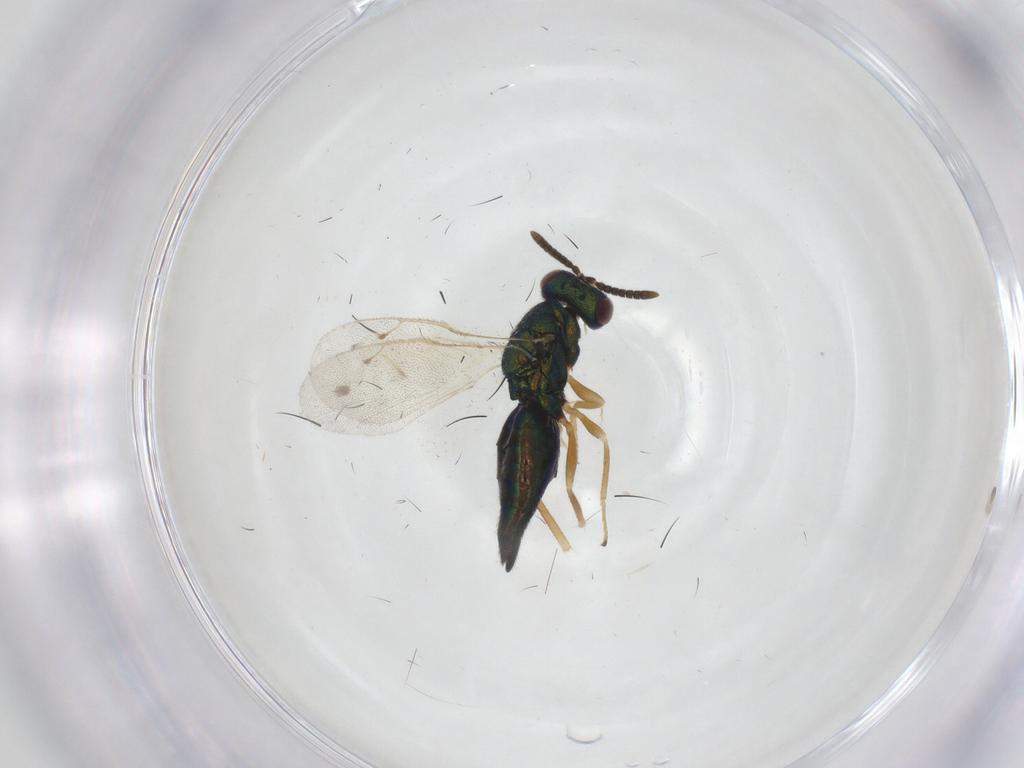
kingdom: Animalia
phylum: Arthropoda
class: Insecta
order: Hymenoptera
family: Pteromalidae
